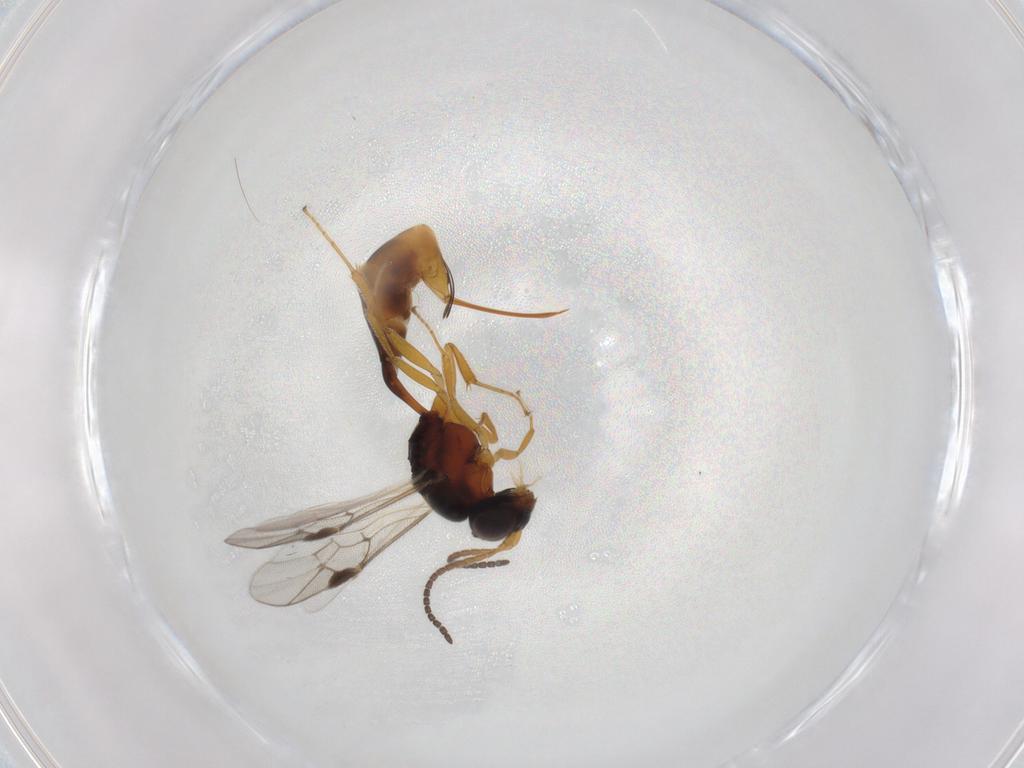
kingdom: Animalia
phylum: Arthropoda
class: Insecta
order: Hymenoptera
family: Formicidae
